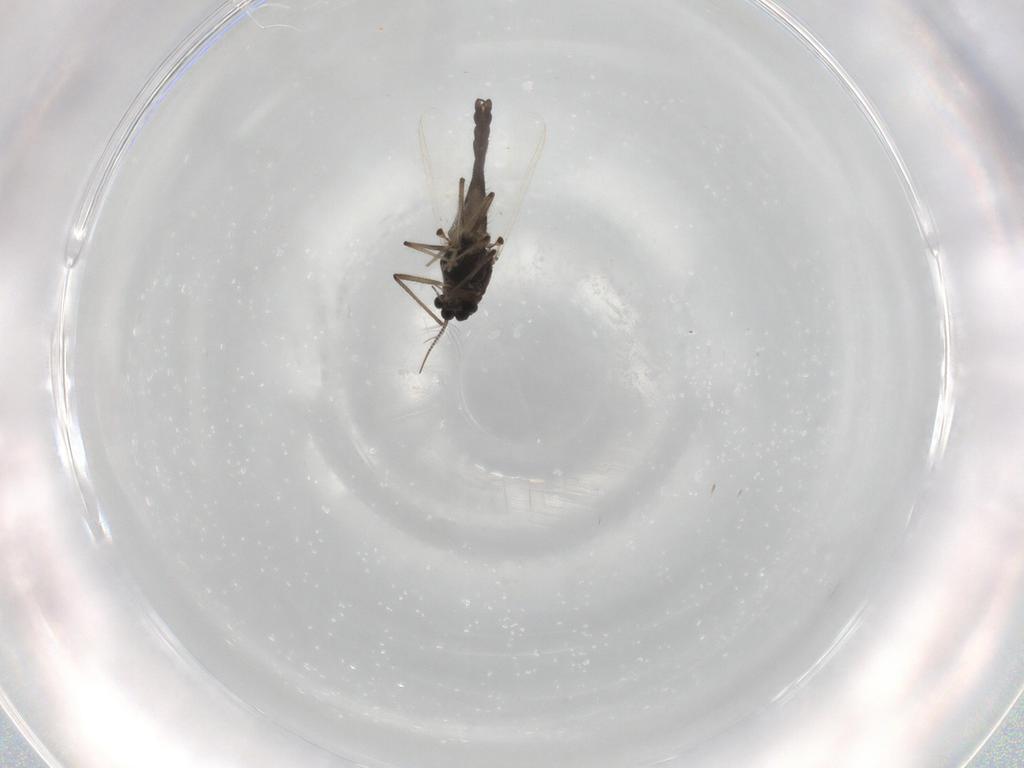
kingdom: Animalia
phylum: Arthropoda
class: Insecta
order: Diptera
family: Chironomidae
